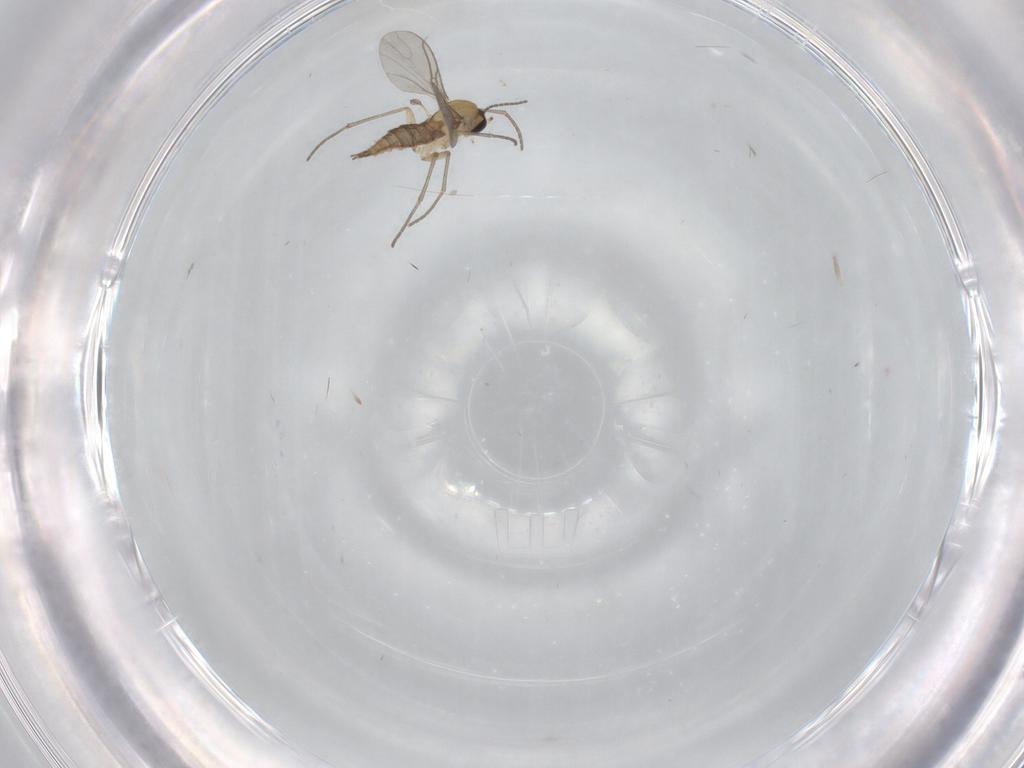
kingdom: Animalia
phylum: Arthropoda
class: Insecta
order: Diptera
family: Sciaridae
